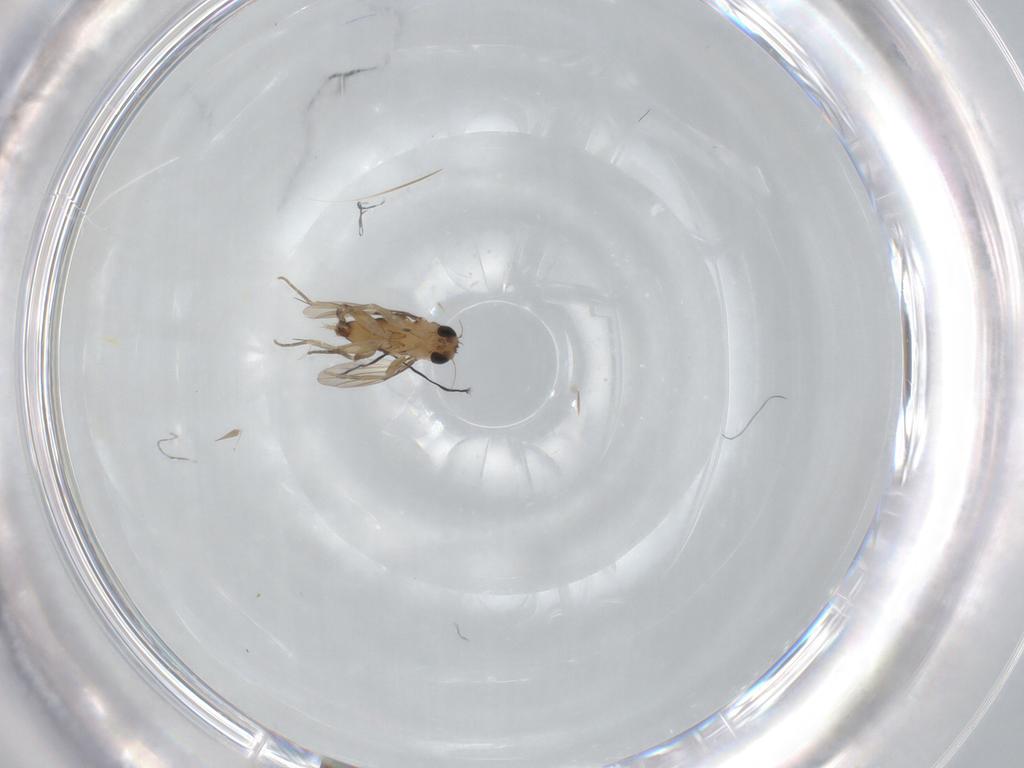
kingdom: Animalia
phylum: Arthropoda
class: Insecta
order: Diptera
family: Phoridae
